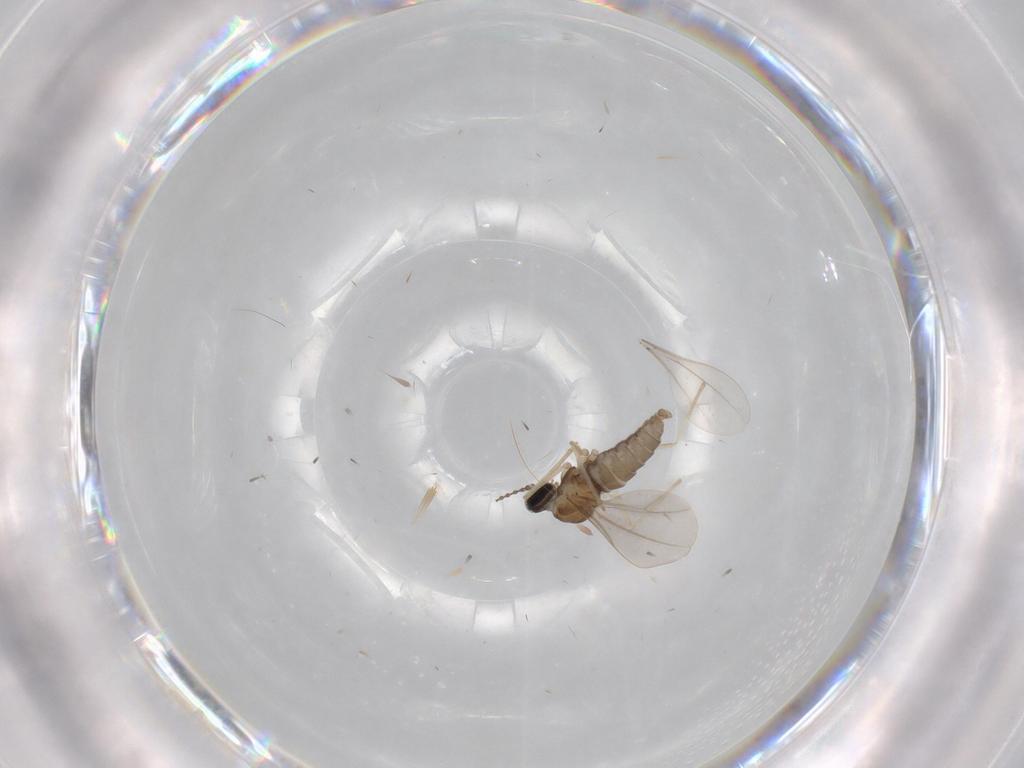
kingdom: Animalia
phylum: Arthropoda
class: Insecta
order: Diptera
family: Cecidomyiidae
